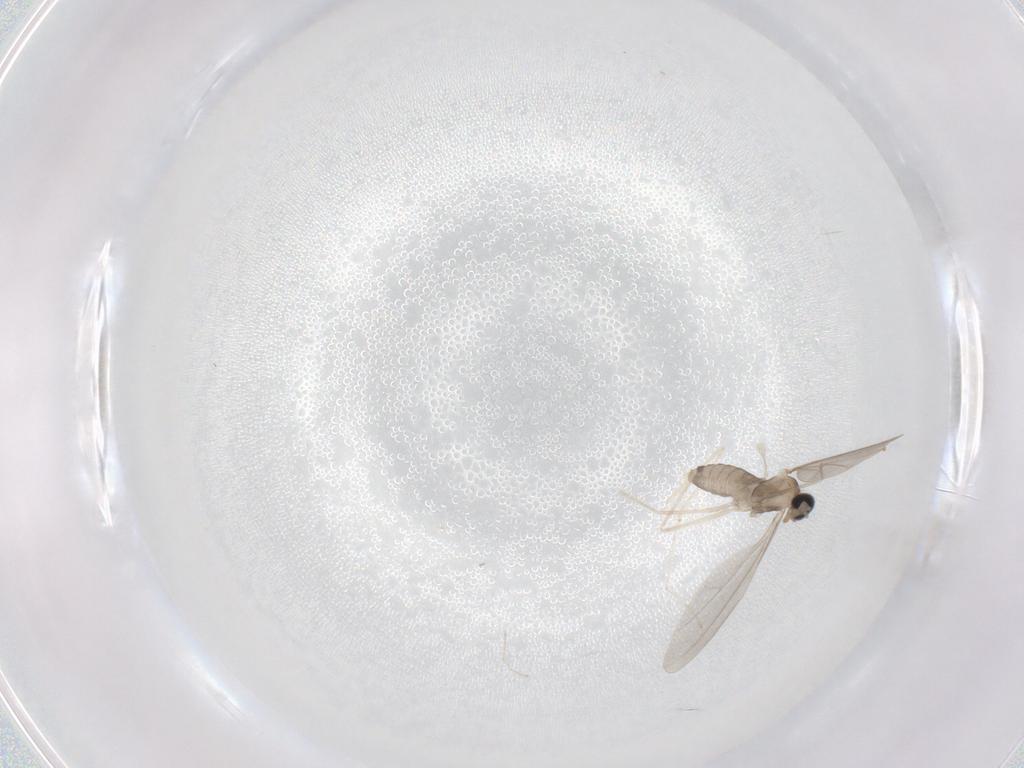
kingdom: Animalia
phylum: Arthropoda
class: Insecta
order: Diptera
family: Cecidomyiidae
